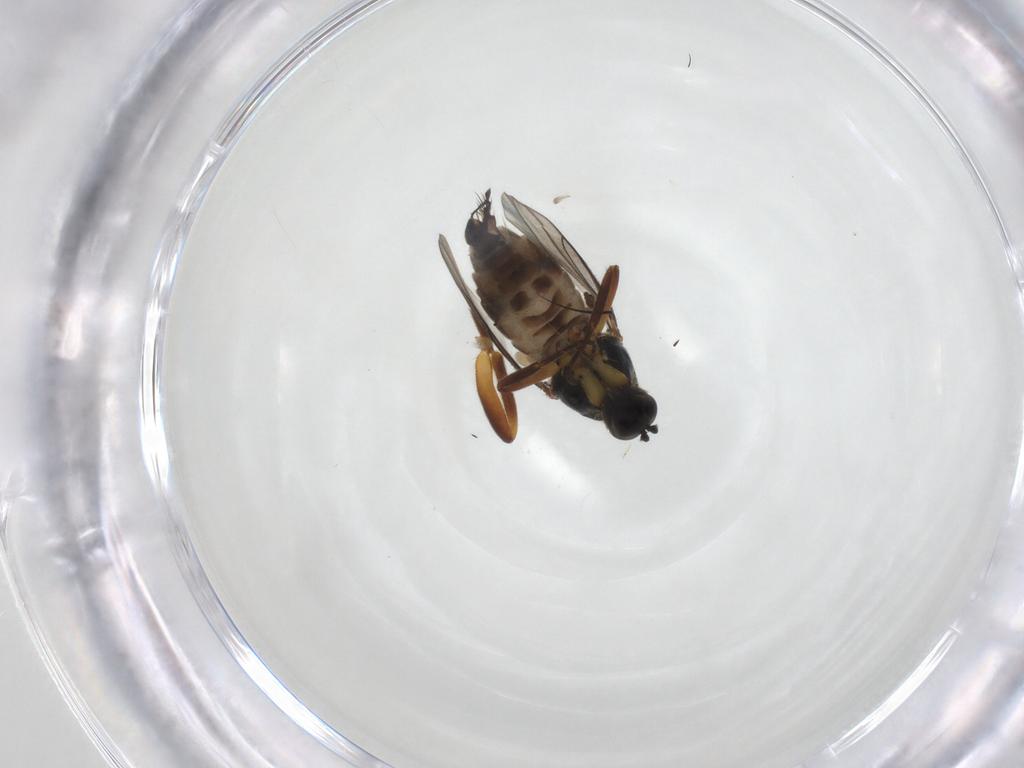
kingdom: Animalia
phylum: Arthropoda
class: Insecta
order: Diptera
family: Hybotidae
